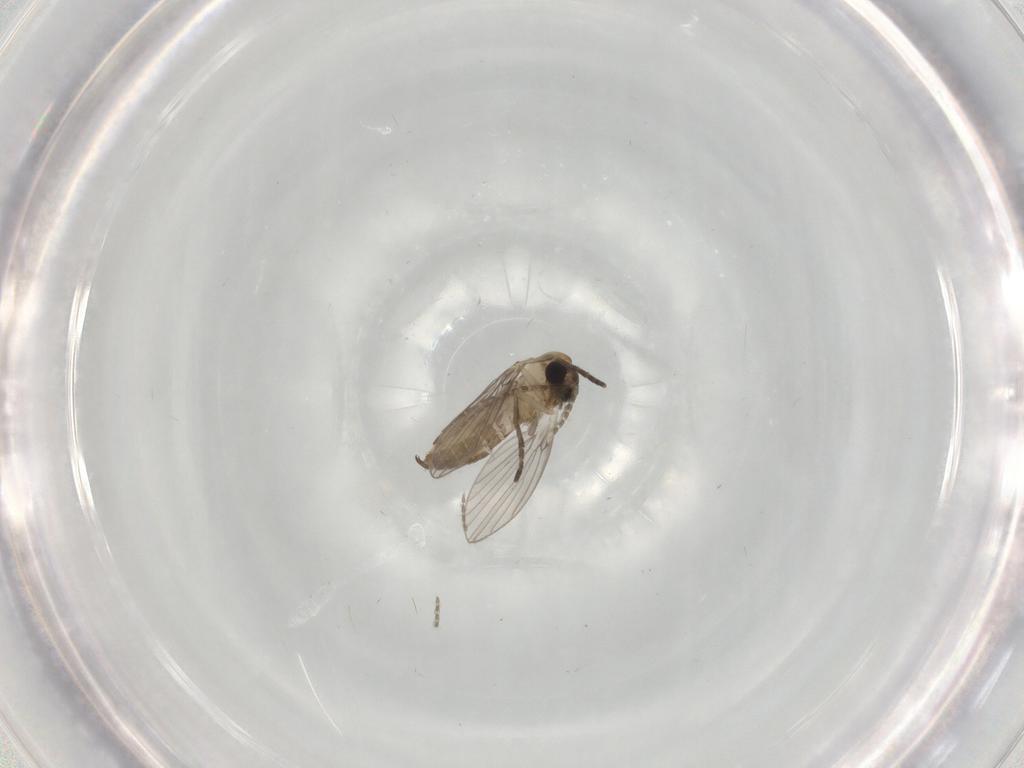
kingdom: Animalia
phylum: Arthropoda
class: Insecta
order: Diptera
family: Psychodidae
